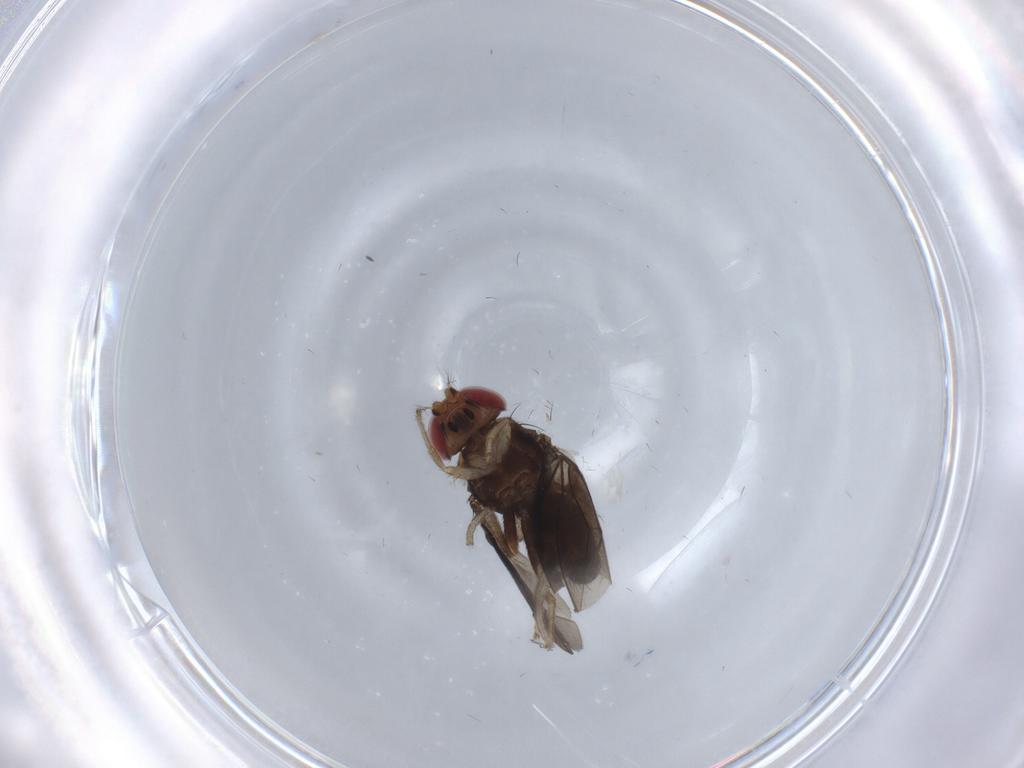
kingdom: Animalia
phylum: Arthropoda
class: Insecta
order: Diptera
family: Drosophilidae
